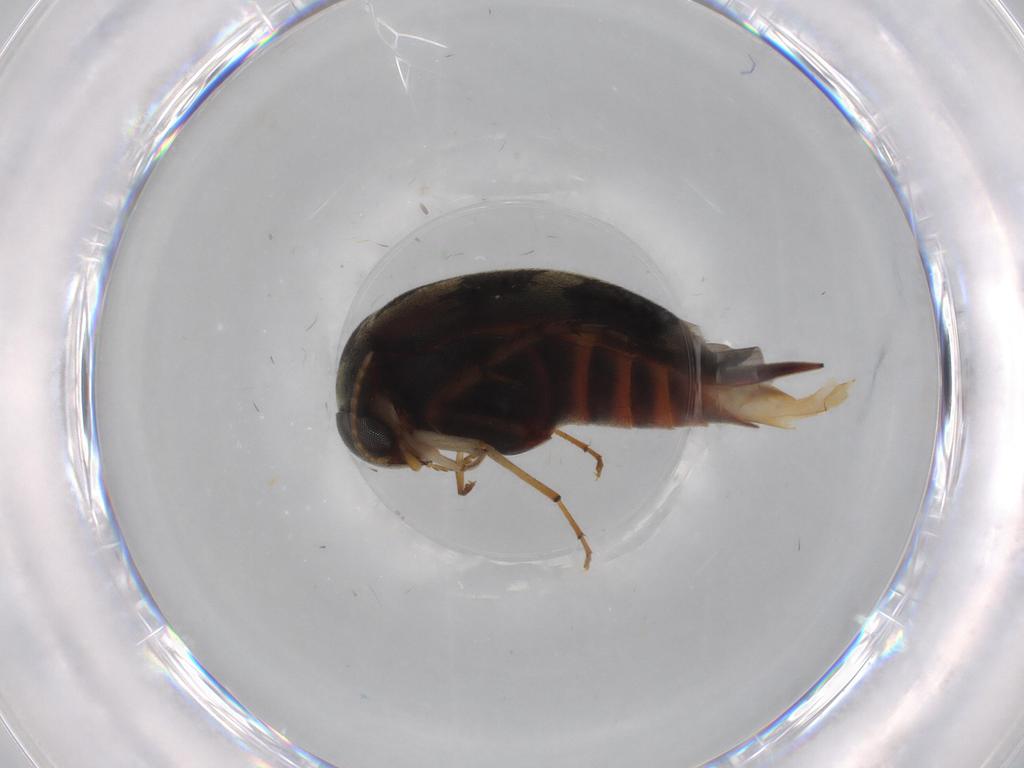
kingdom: Animalia
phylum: Arthropoda
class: Insecta
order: Coleoptera
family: Mordellidae
